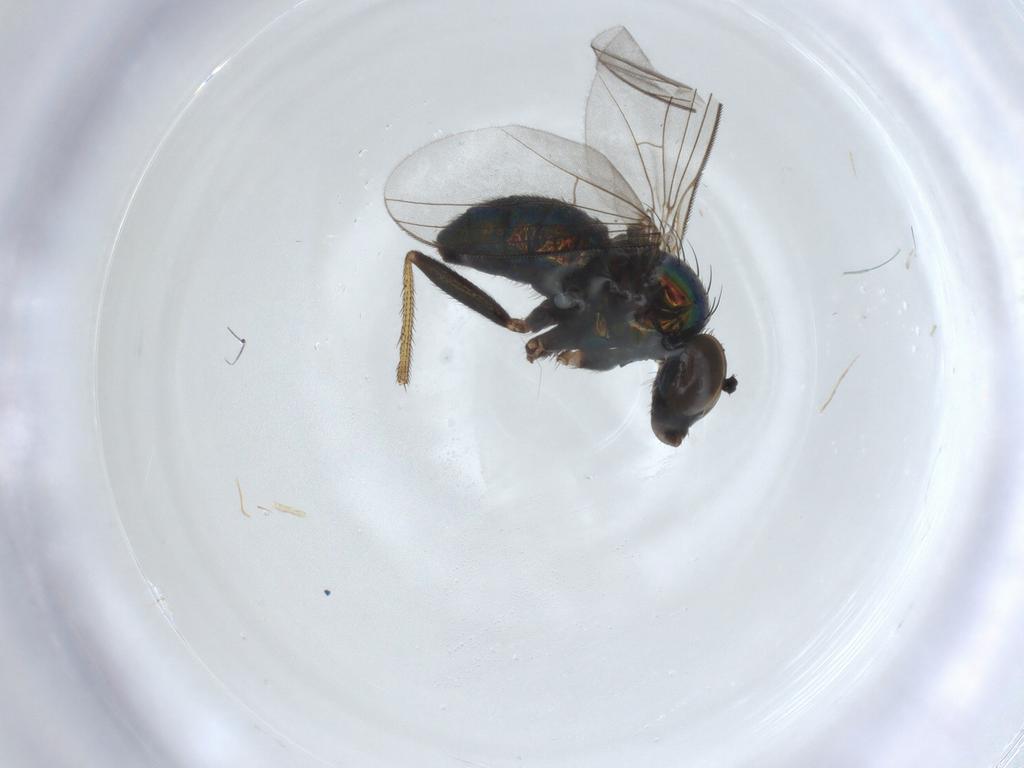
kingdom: Animalia
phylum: Arthropoda
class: Insecta
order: Diptera
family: Dolichopodidae
